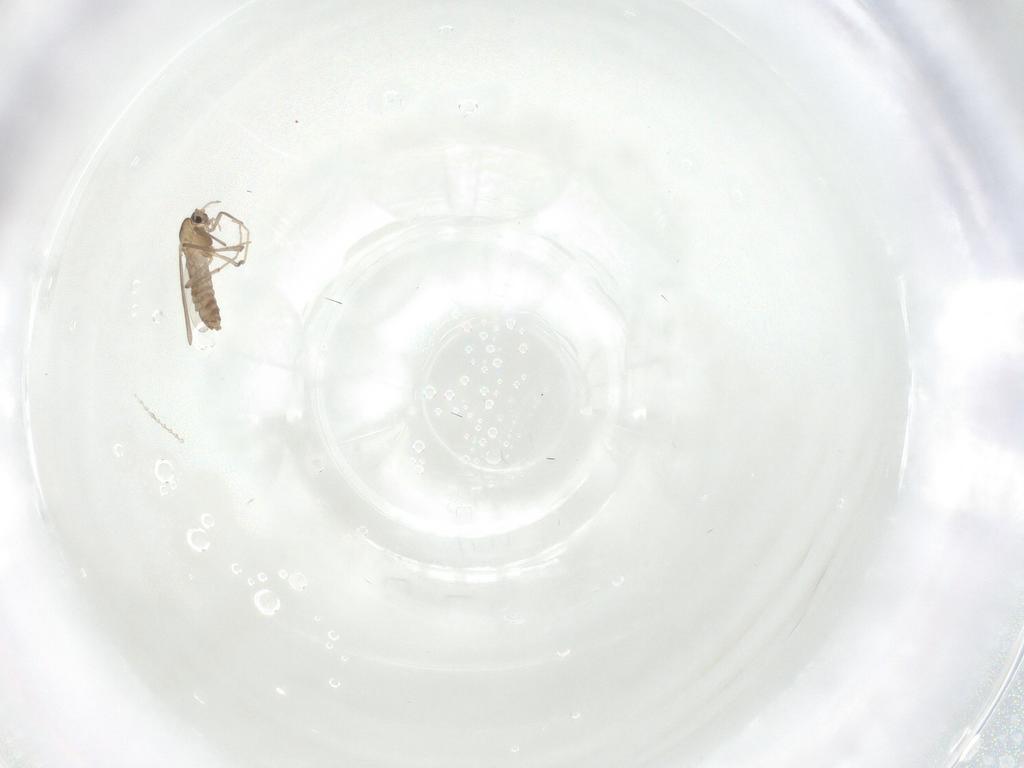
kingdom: Animalia
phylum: Arthropoda
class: Insecta
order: Diptera
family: Chironomidae
